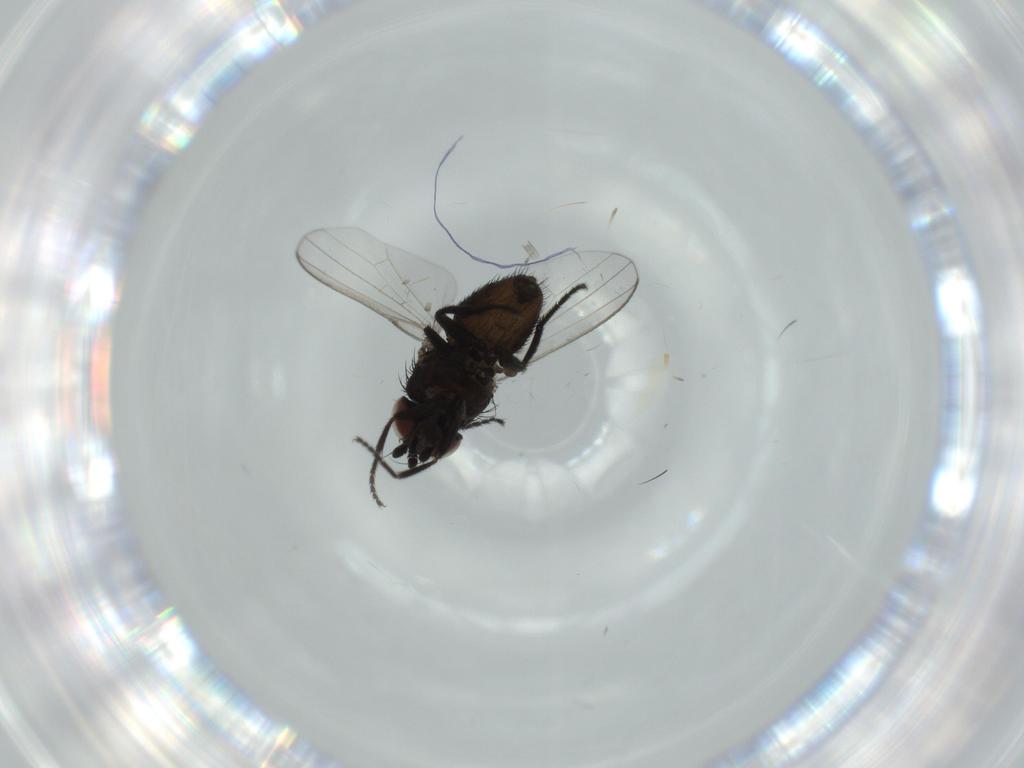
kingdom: Animalia
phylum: Arthropoda
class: Insecta
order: Diptera
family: Milichiidae
